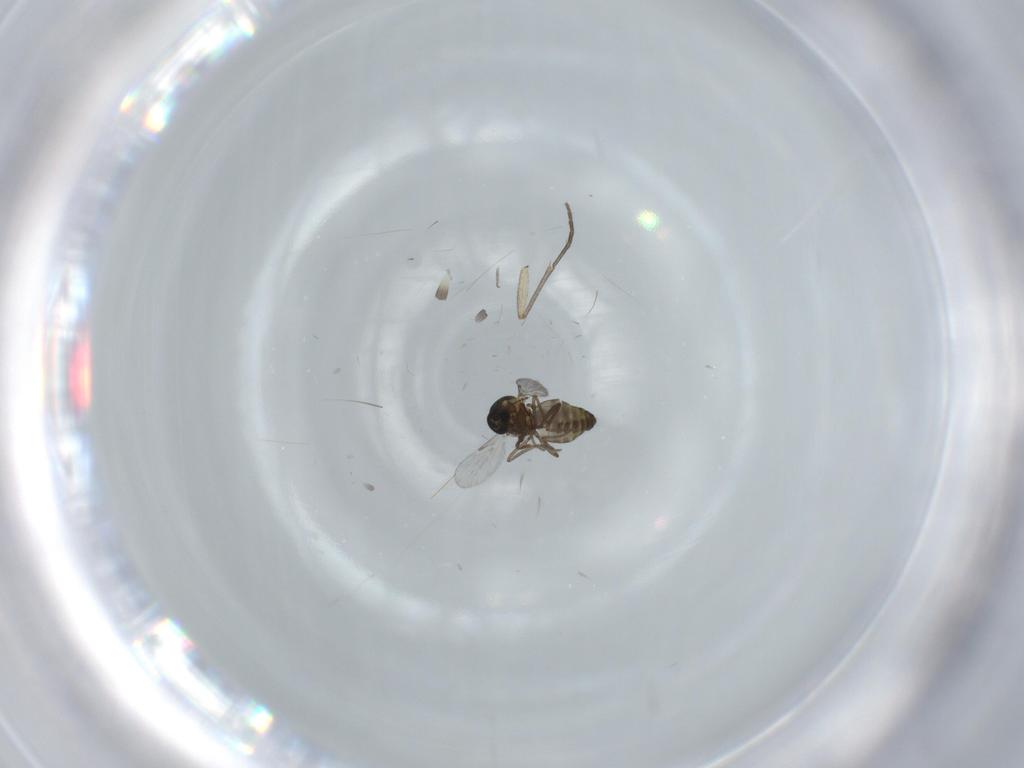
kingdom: Animalia
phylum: Arthropoda
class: Insecta
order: Diptera
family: Sciaridae
